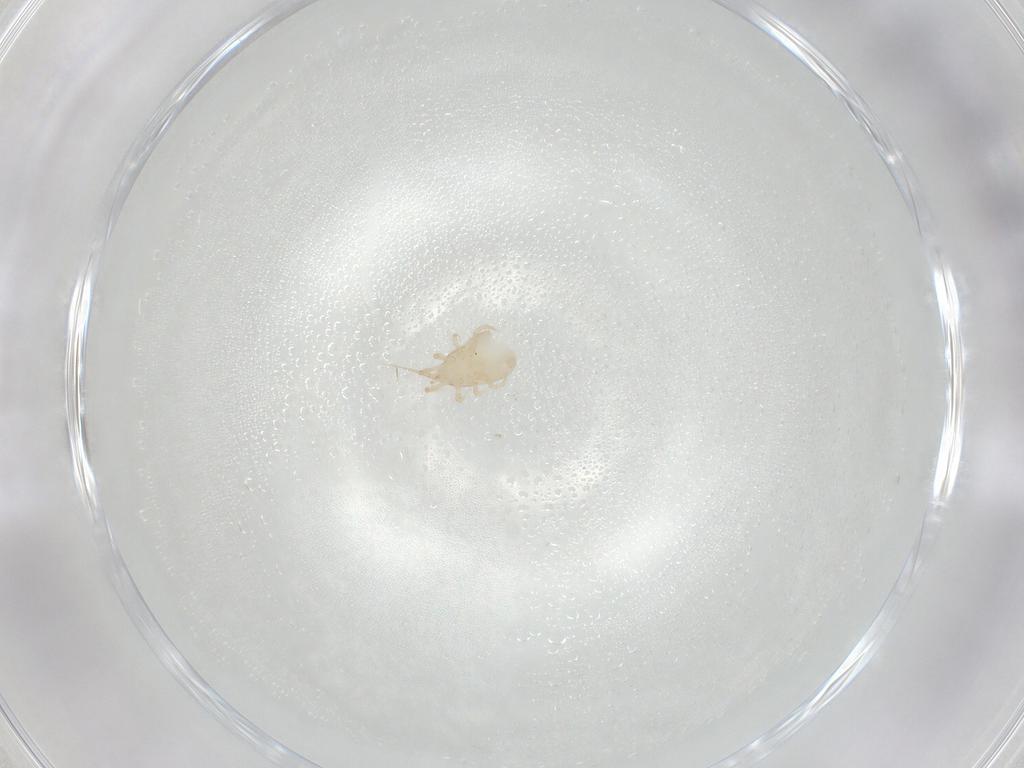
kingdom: Animalia
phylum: Arthropoda
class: Arachnida
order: Mesostigmata
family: Melicharidae
